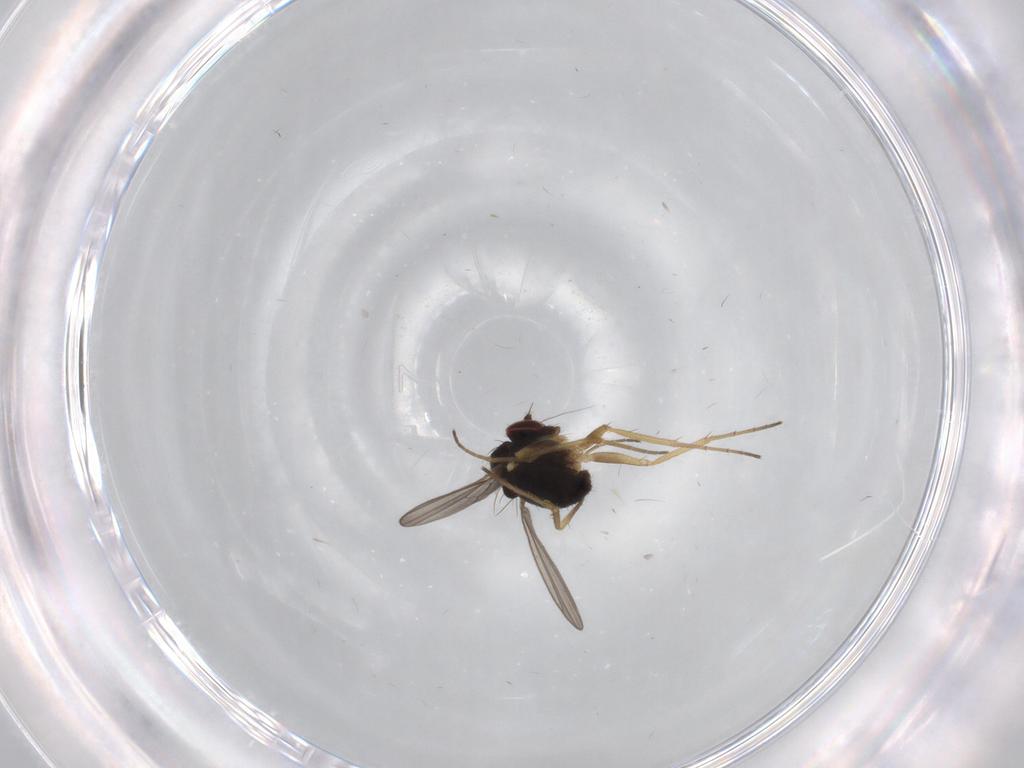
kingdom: Animalia
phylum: Arthropoda
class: Insecta
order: Diptera
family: Dolichopodidae
